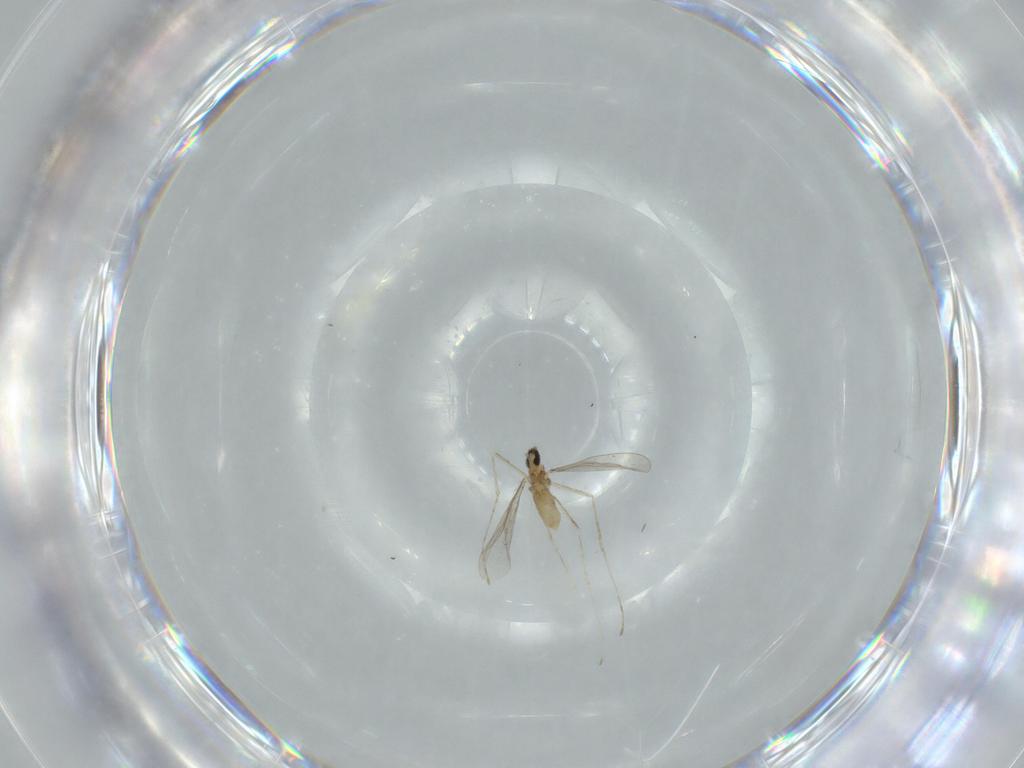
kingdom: Animalia
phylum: Arthropoda
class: Insecta
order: Diptera
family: Cecidomyiidae
